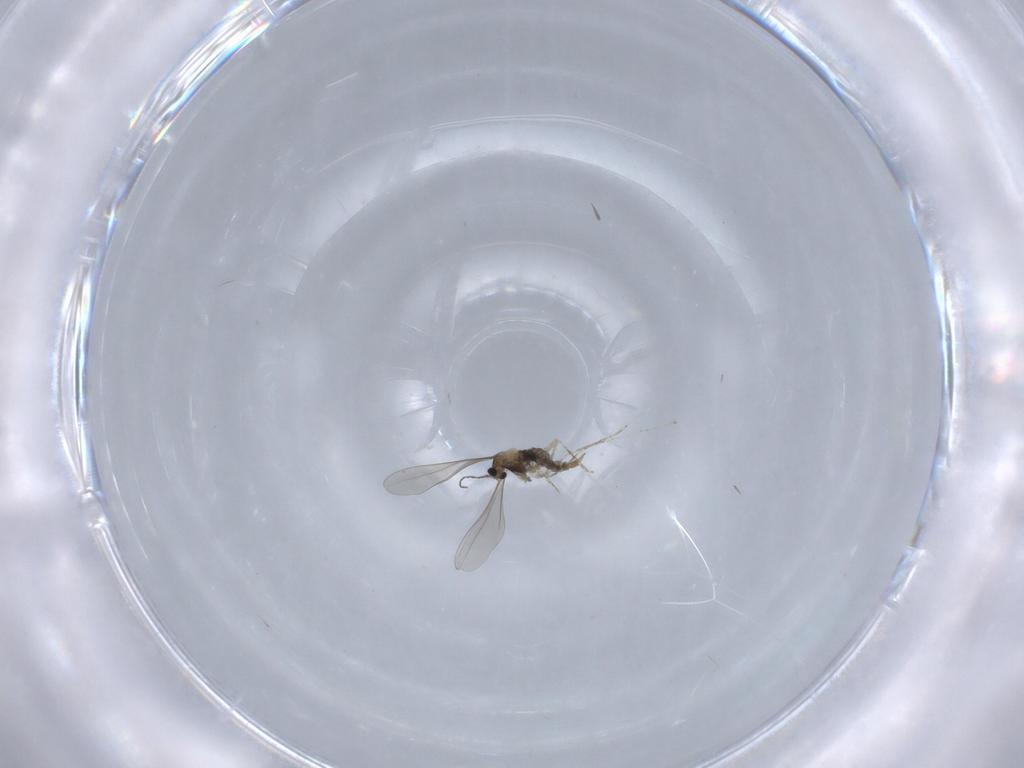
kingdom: Animalia
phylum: Arthropoda
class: Insecta
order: Diptera
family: Cecidomyiidae
